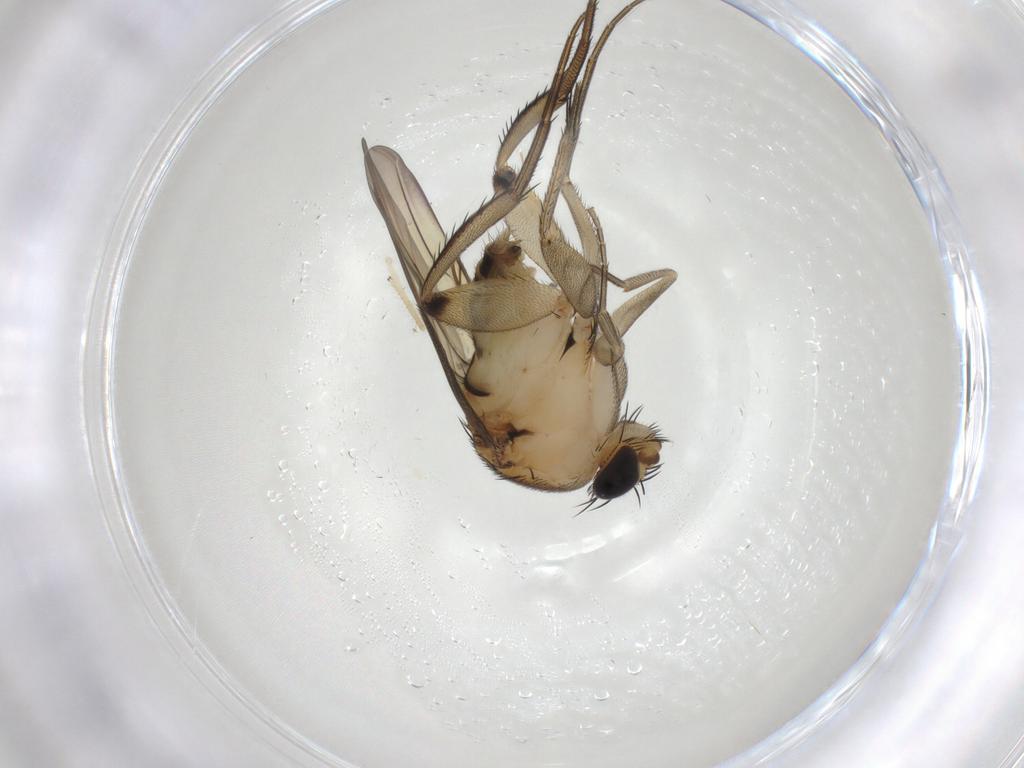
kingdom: Animalia
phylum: Arthropoda
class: Insecta
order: Diptera
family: Phoridae
